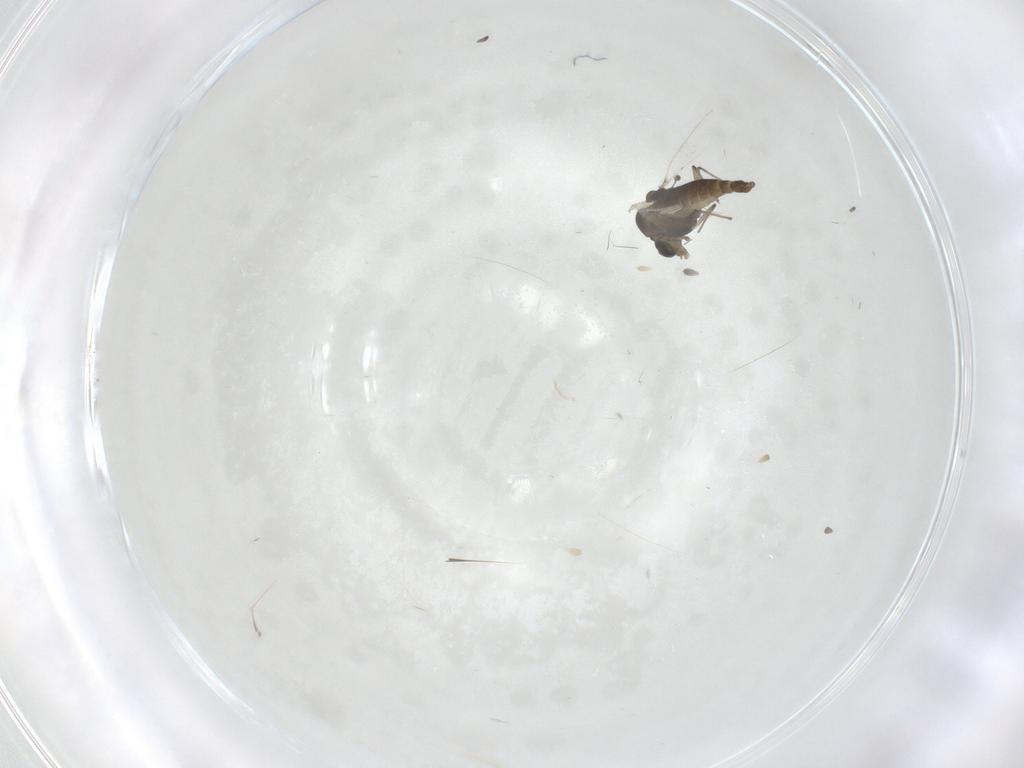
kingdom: Animalia
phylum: Arthropoda
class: Insecta
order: Diptera
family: Chironomidae
